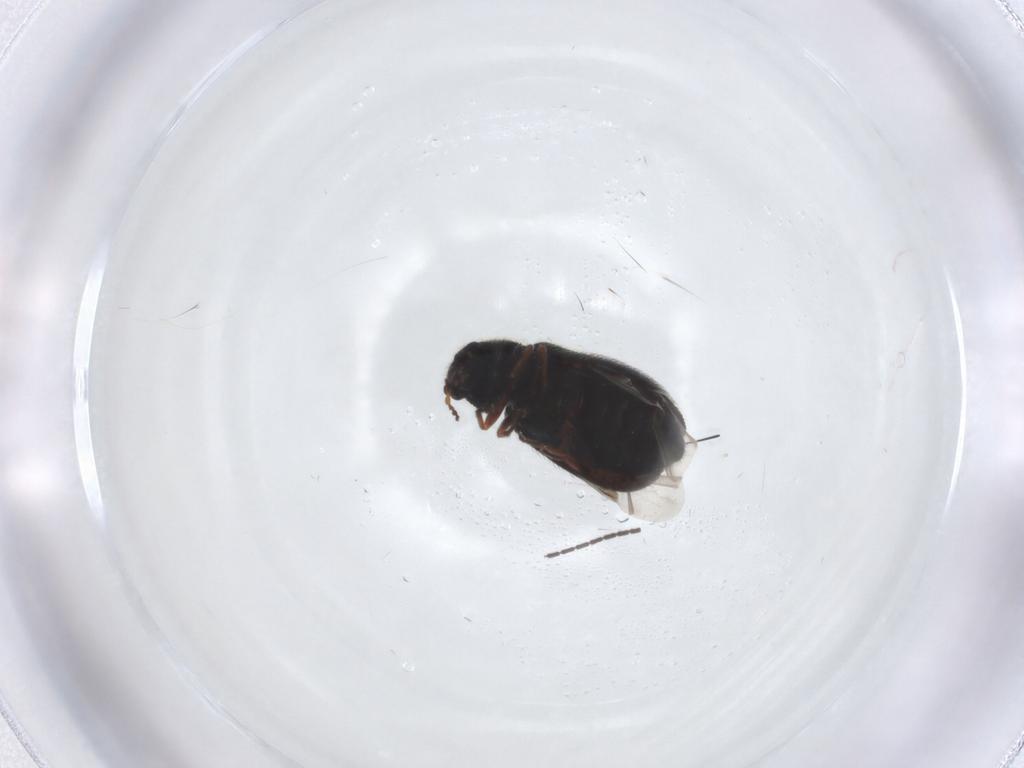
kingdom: Animalia
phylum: Arthropoda
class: Insecta
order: Coleoptera
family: Melyridae
